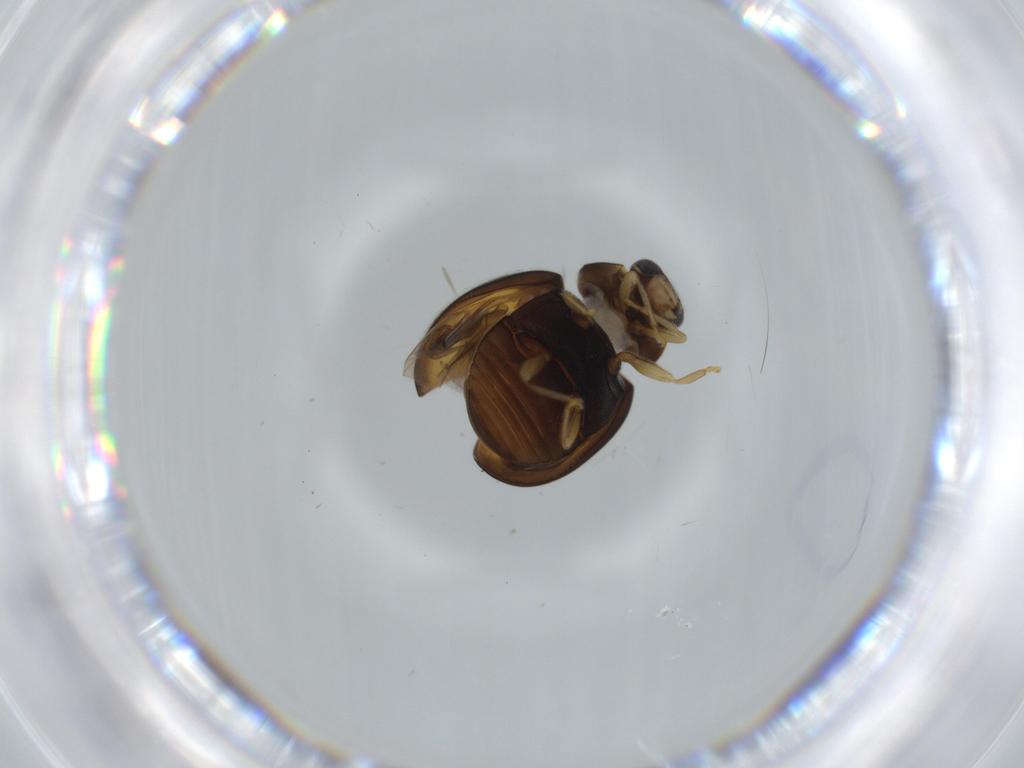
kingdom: Animalia
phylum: Arthropoda
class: Insecta
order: Coleoptera
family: Coccinellidae
